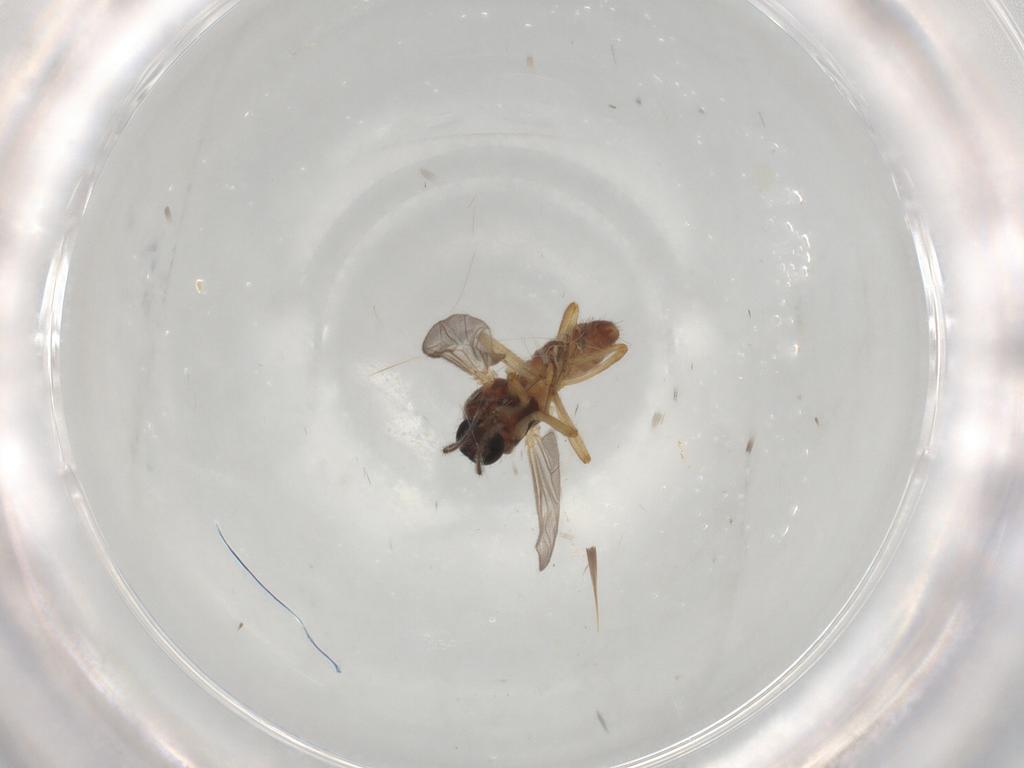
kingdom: Animalia
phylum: Arthropoda
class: Insecta
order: Diptera
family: Ceratopogonidae
